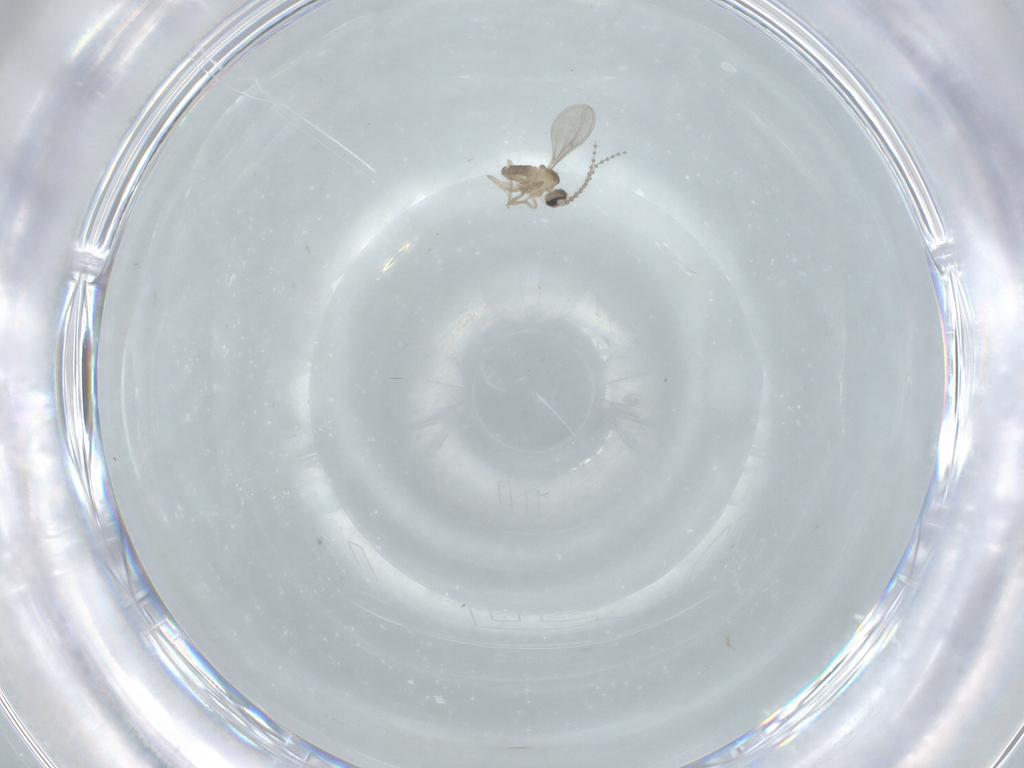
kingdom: Animalia
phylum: Arthropoda
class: Insecta
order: Diptera
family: Cecidomyiidae
